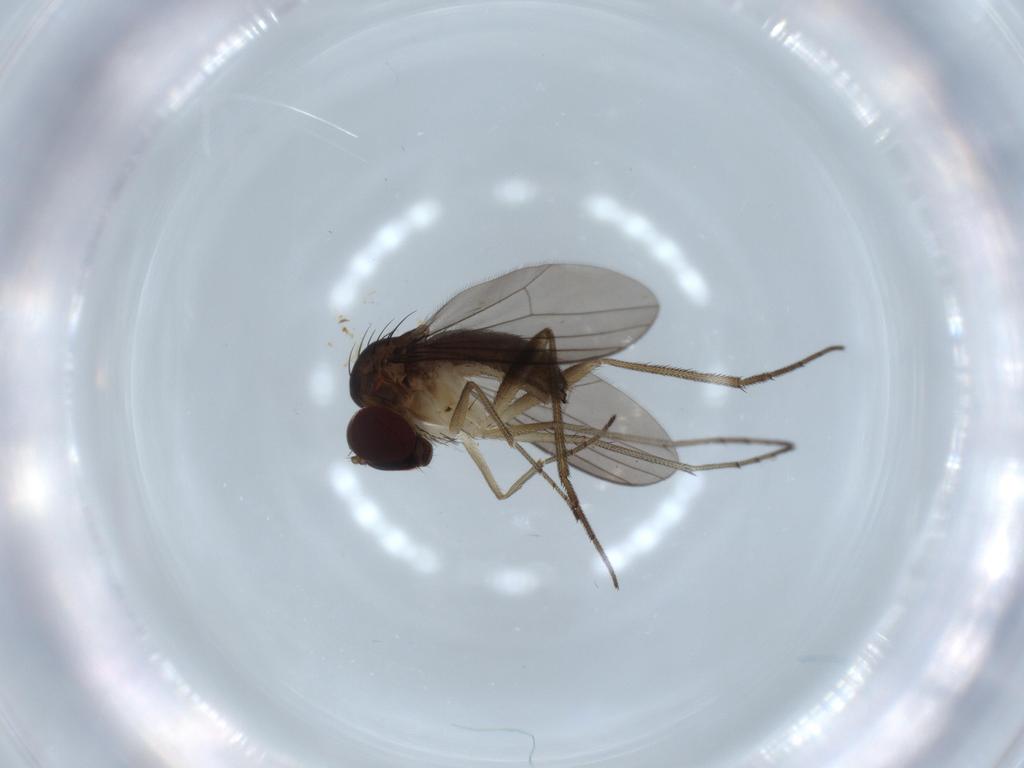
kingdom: Animalia
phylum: Arthropoda
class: Insecta
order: Diptera
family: Dolichopodidae
